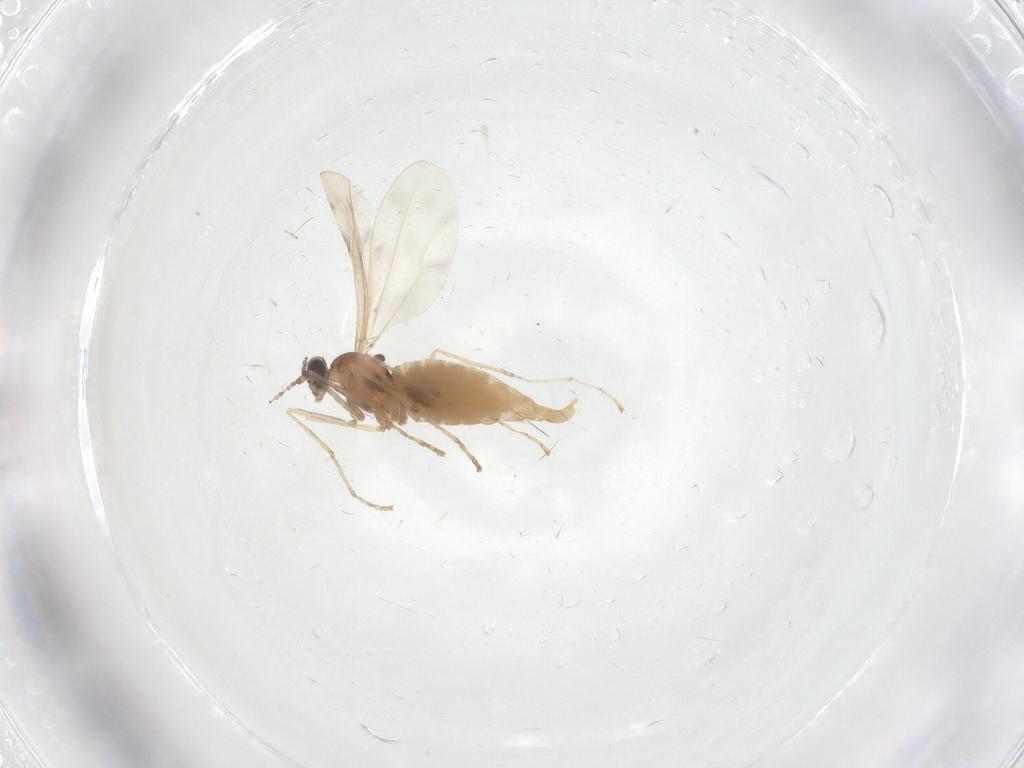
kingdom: Animalia
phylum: Arthropoda
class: Insecta
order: Diptera
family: Cecidomyiidae
